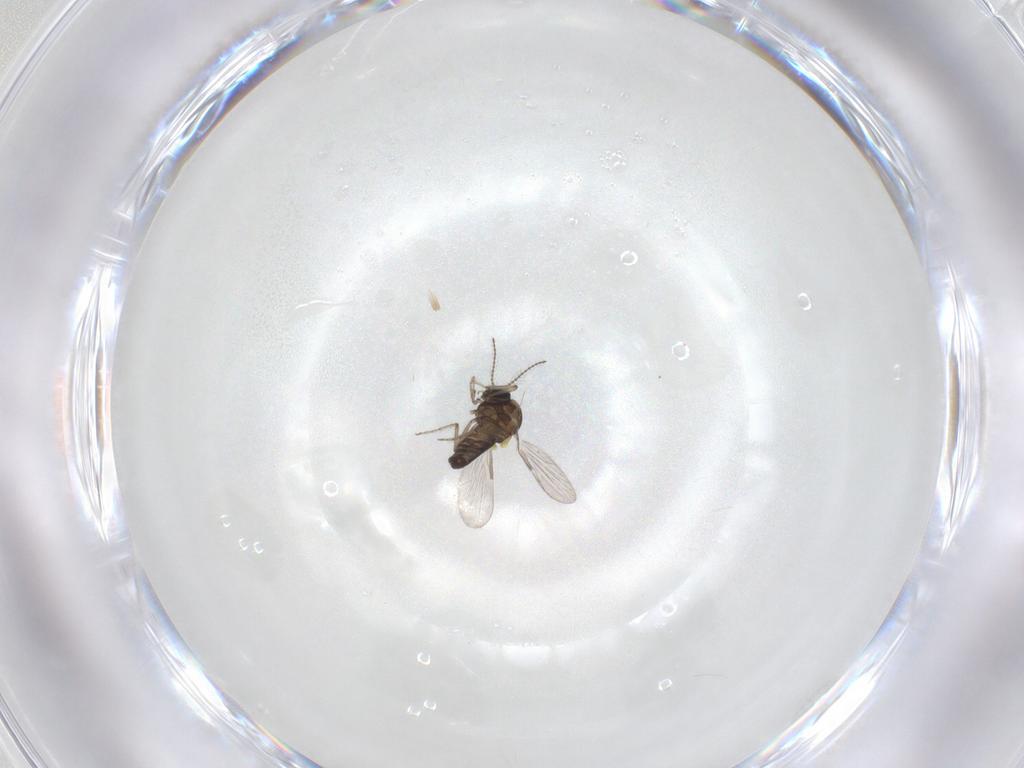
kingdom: Animalia
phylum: Arthropoda
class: Insecta
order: Diptera
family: Ceratopogonidae
